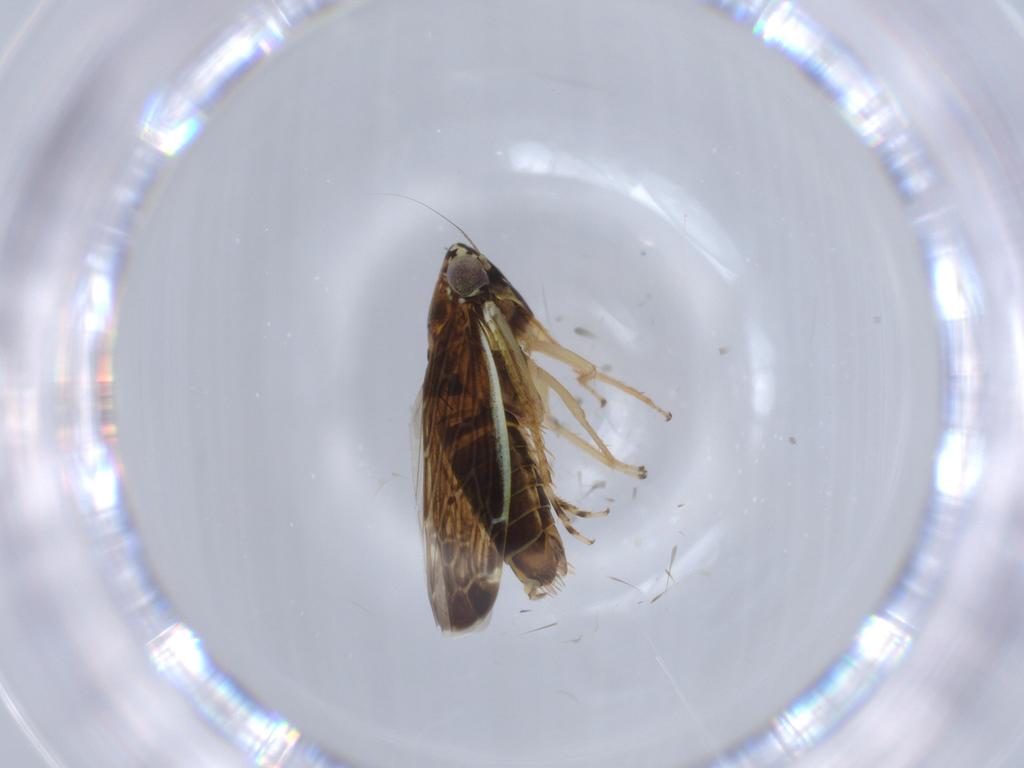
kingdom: Animalia
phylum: Arthropoda
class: Insecta
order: Hemiptera
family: Cicadellidae
